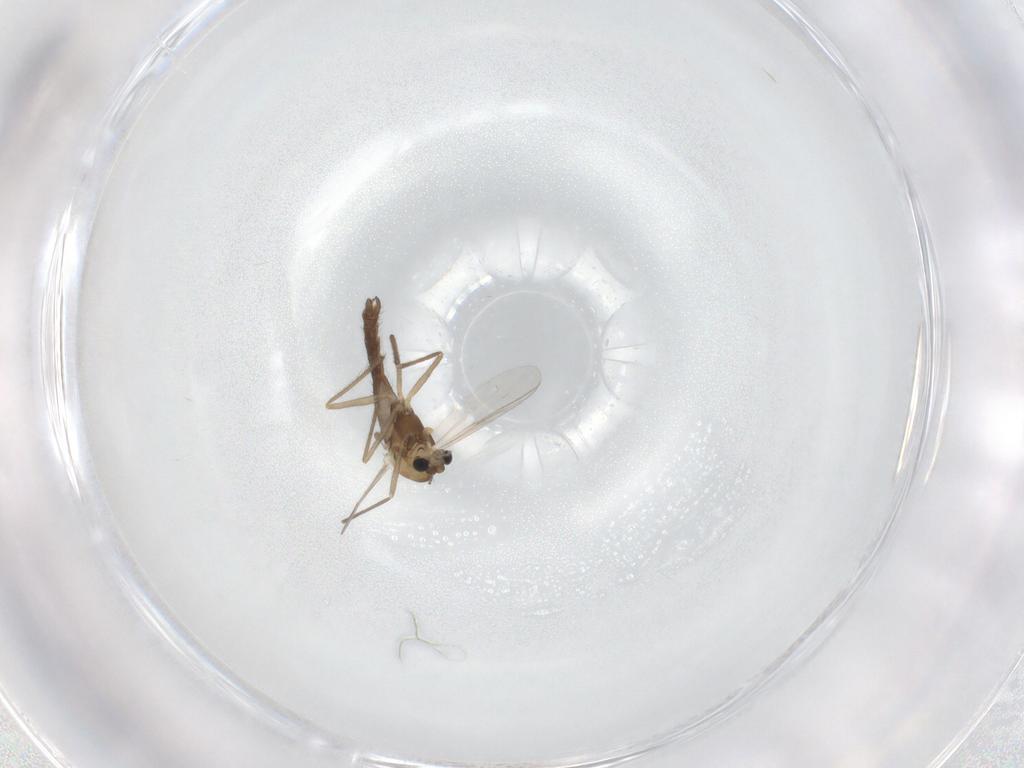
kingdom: Animalia
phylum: Arthropoda
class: Insecta
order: Diptera
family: Chironomidae
